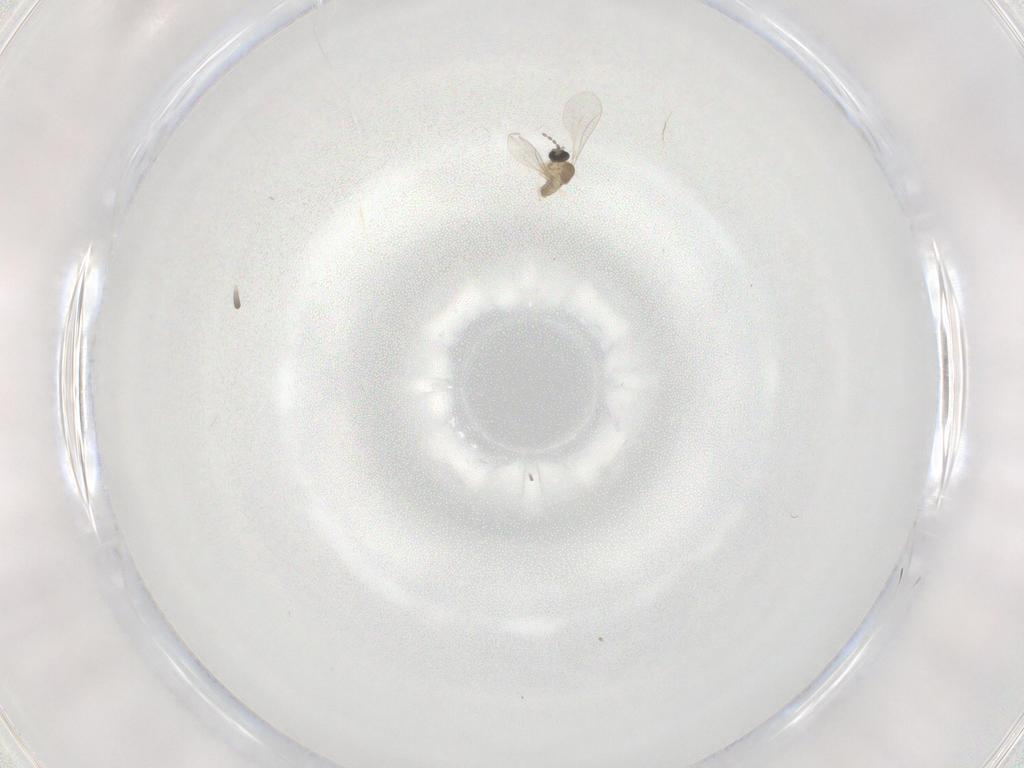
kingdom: Animalia
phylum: Arthropoda
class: Insecta
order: Diptera
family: Cecidomyiidae
